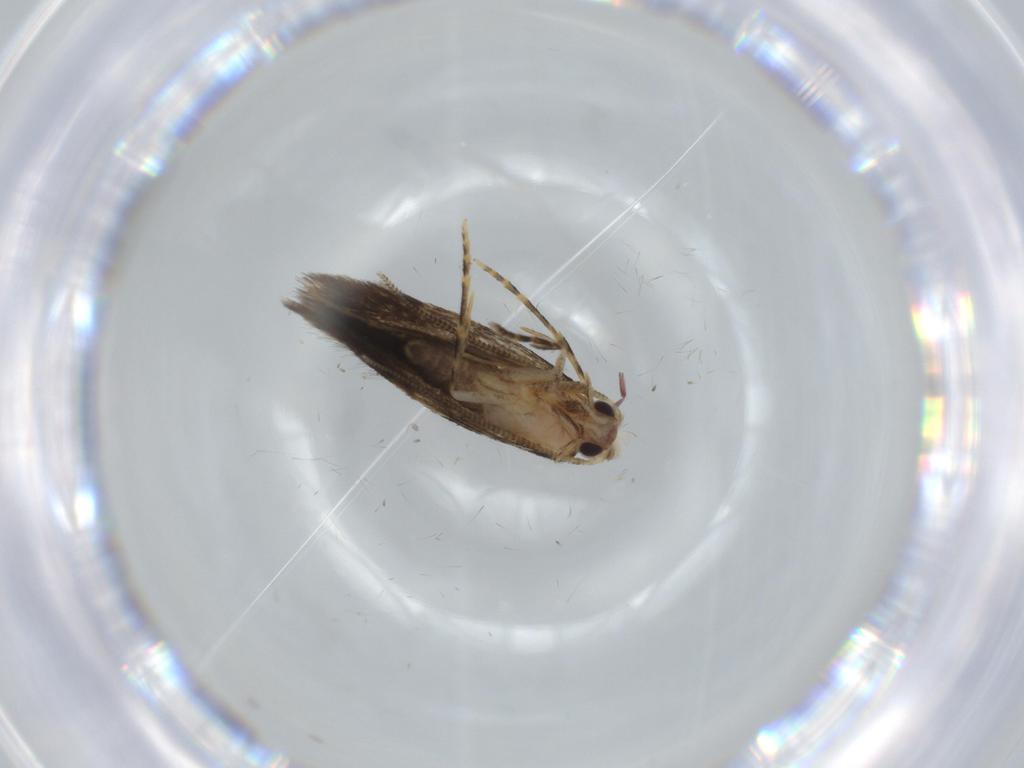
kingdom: Animalia
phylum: Arthropoda
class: Insecta
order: Lepidoptera
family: Tineidae
